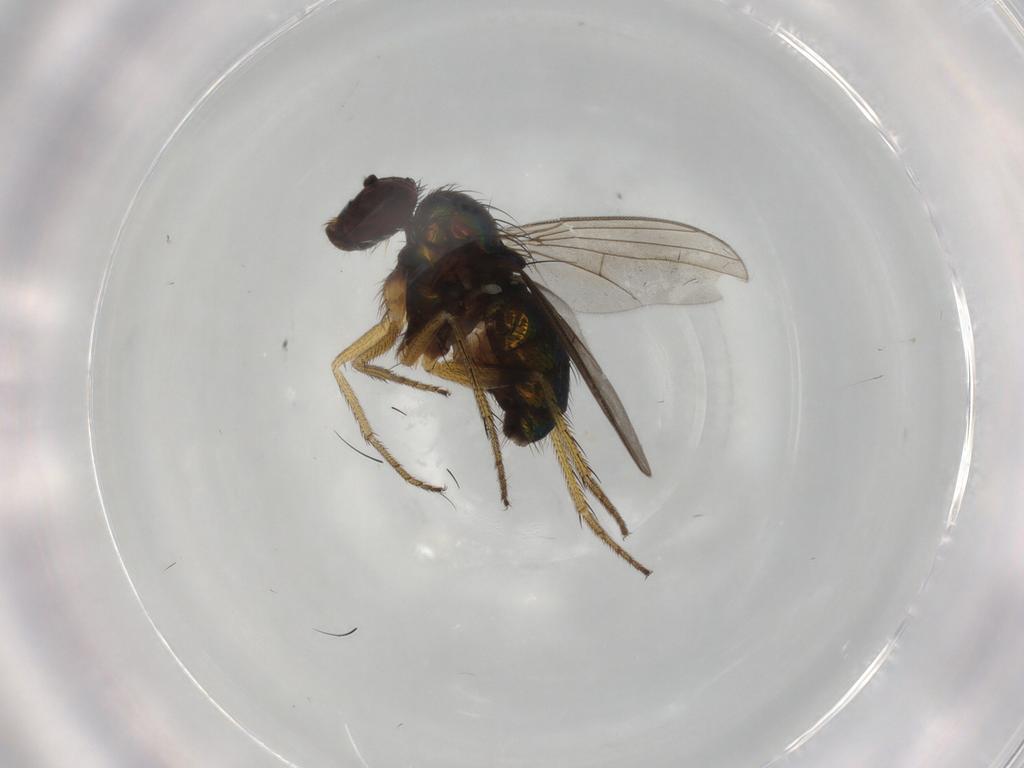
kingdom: Animalia
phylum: Arthropoda
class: Insecta
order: Diptera
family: Dolichopodidae
